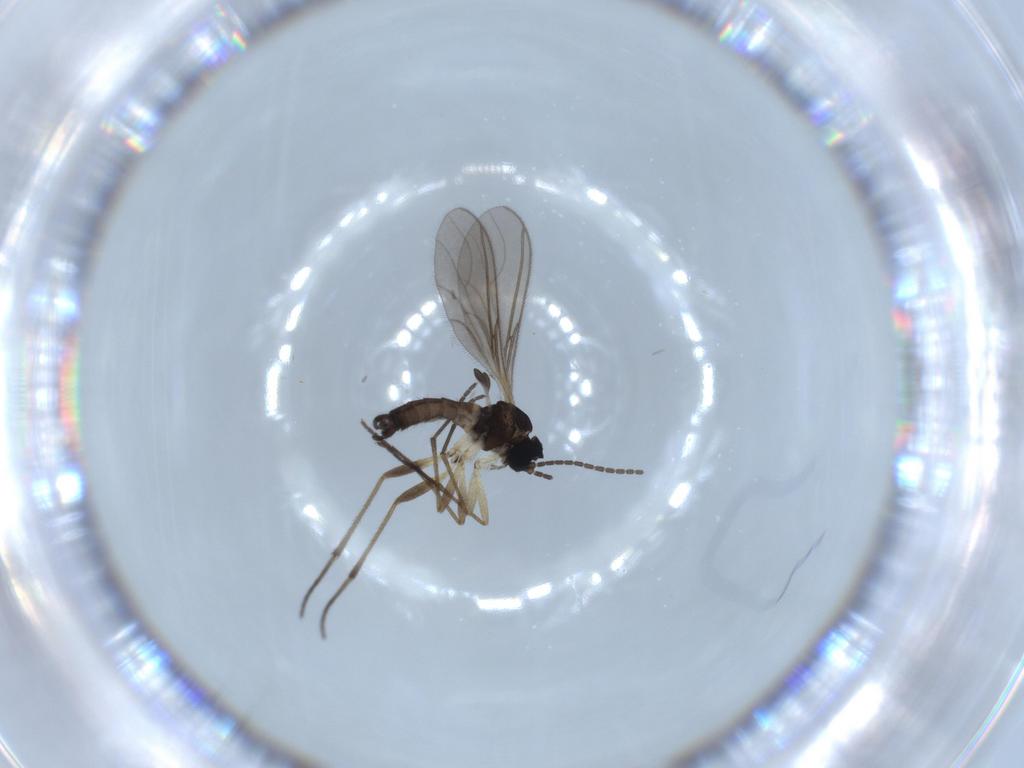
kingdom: Animalia
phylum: Arthropoda
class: Insecta
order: Diptera
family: Sciaridae
